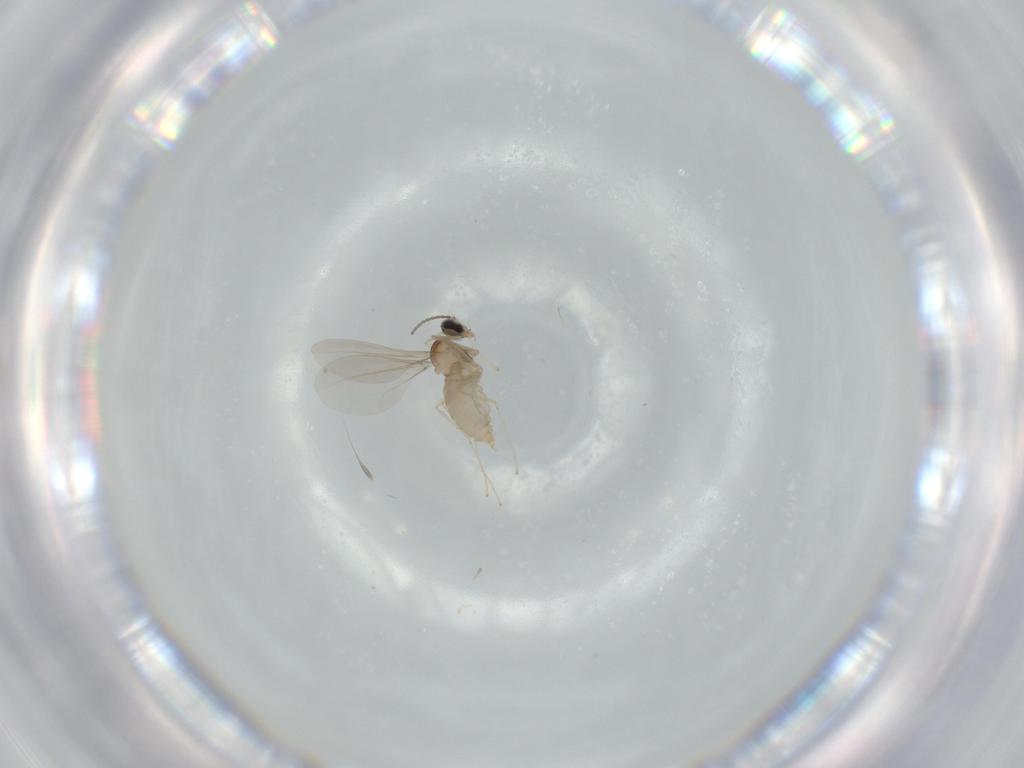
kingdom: Animalia
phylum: Arthropoda
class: Insecta
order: Diptera
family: Cecidomyiidae
